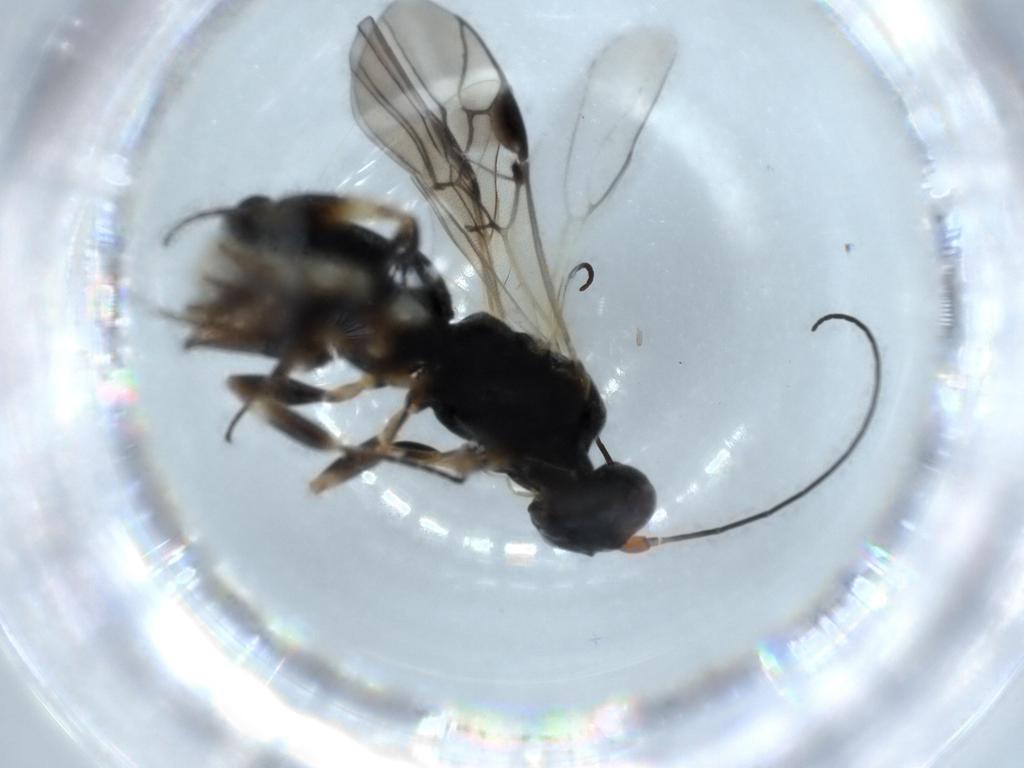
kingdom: Animalia
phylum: Arthropoda
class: Insecta
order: Hymenoptera
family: Braconidae
